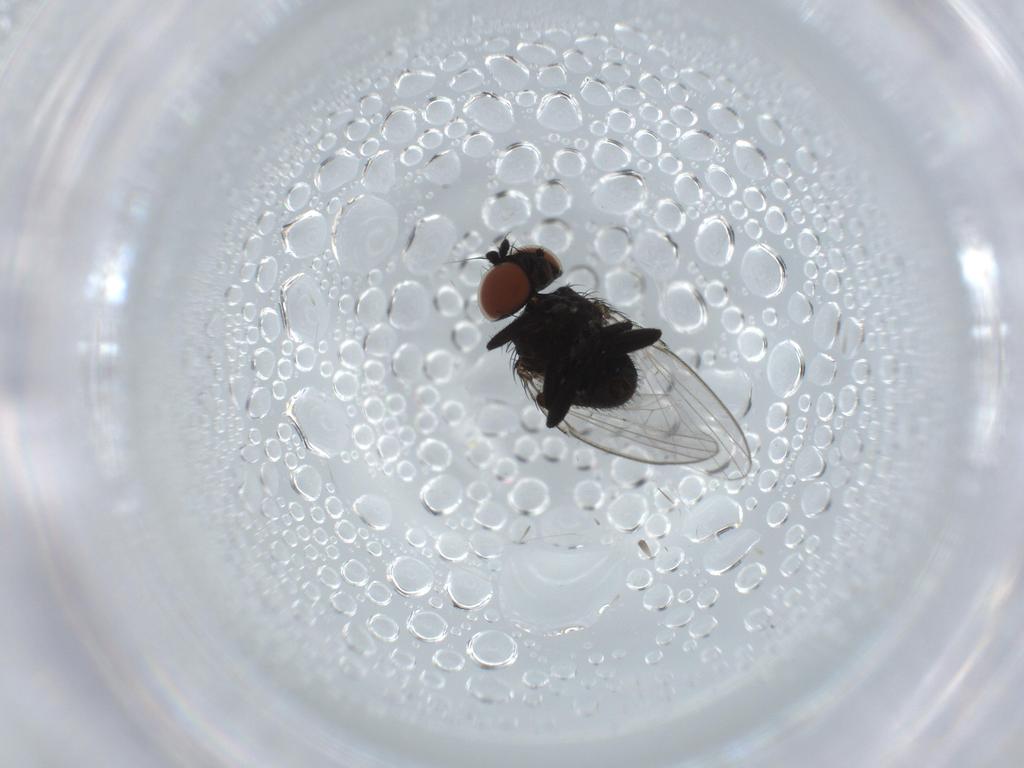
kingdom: Animalia
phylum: Arthropoda
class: Insecta
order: Diptera
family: Milichiidae
